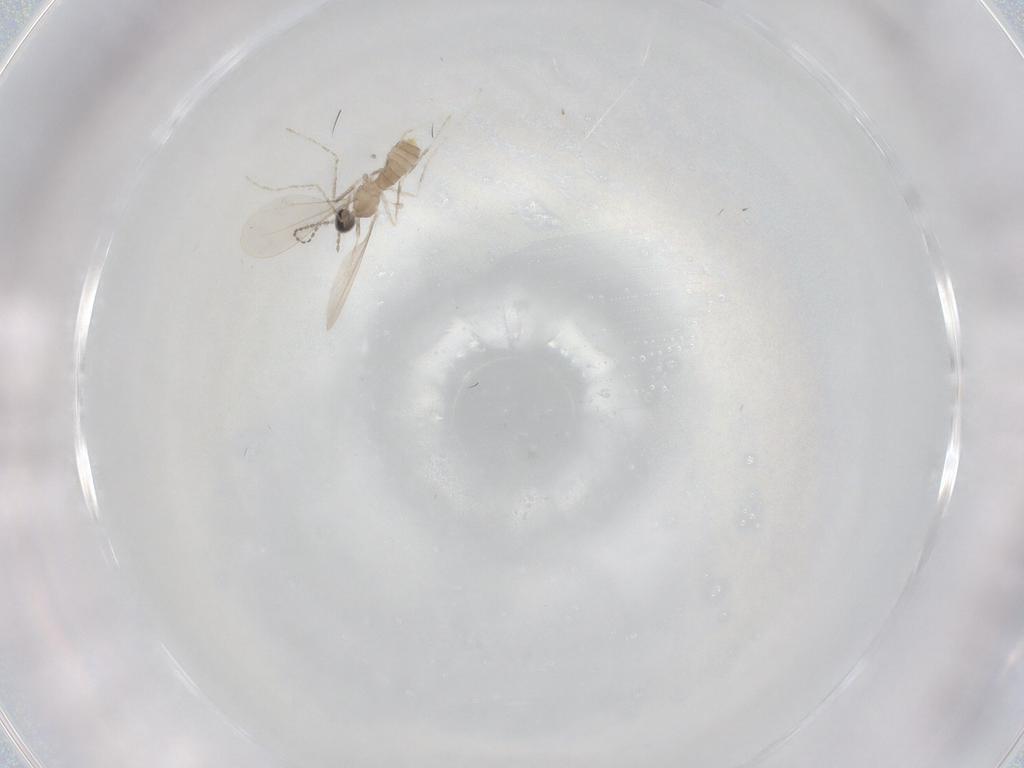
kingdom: Animalia
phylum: Arthropoda
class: Insecta
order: Diptera
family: Cecidomyiidae
